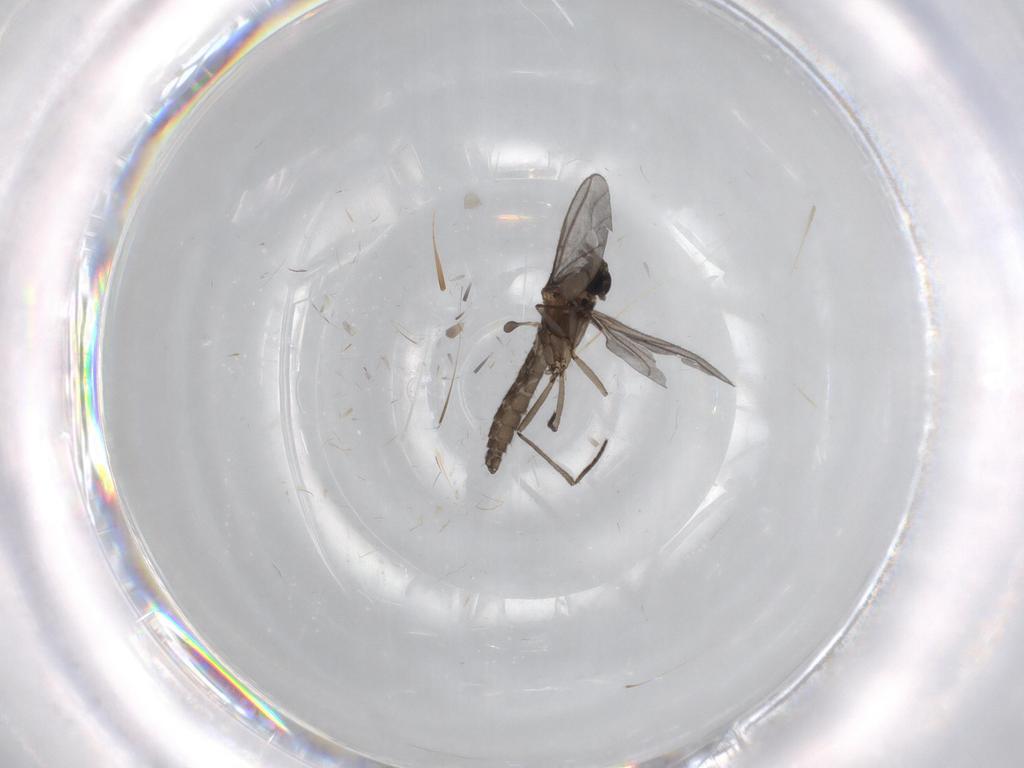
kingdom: Animalia
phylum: Arthropoda
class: Insecta
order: Diptera
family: Sciaridae
